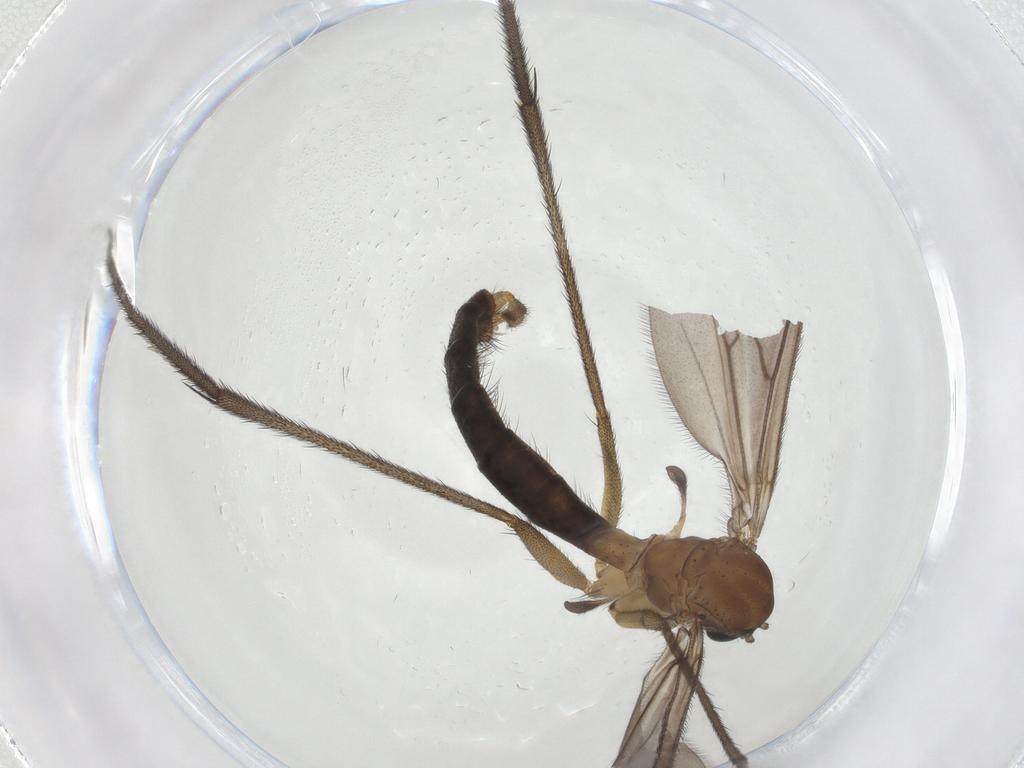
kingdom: Animalia
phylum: Arthropoda
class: Insecta
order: Diptera
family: Ditomyiidae
